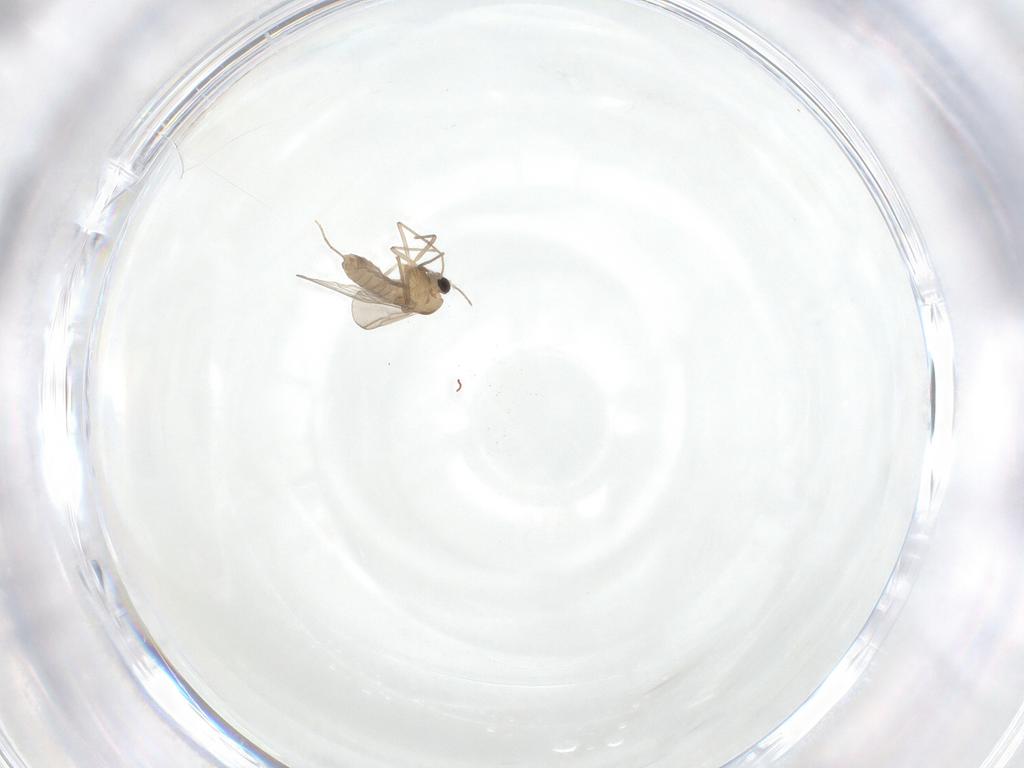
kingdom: Animalia
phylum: Arthropoda
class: Insecta
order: Diptera
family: Chironomidae
